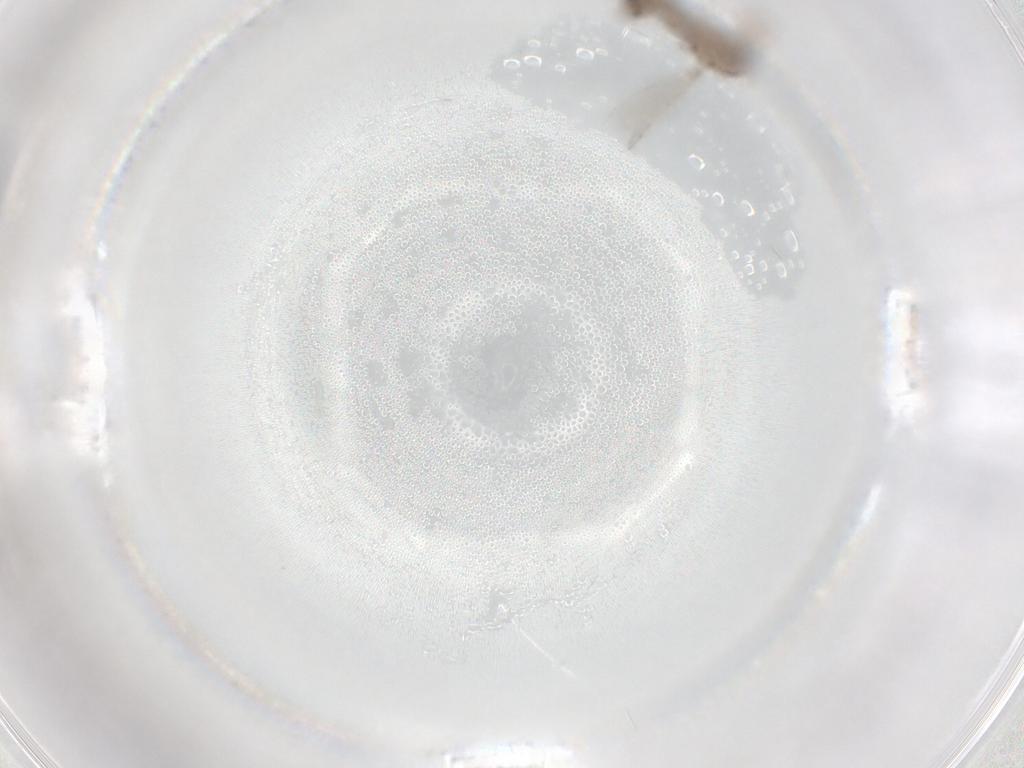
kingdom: Animalia
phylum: Arthropoda
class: Insecta
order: Diptera
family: Chironomidae
